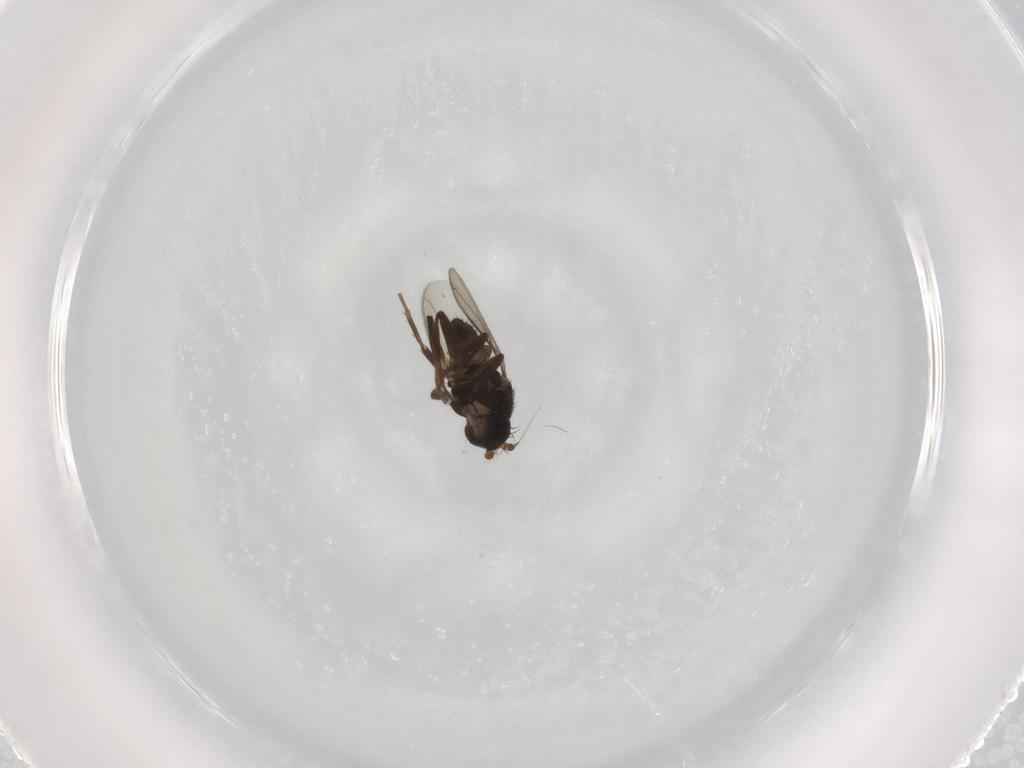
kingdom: Animalia
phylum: Arthropoda
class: Insecta
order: Diptera
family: Sphaeroceridae
